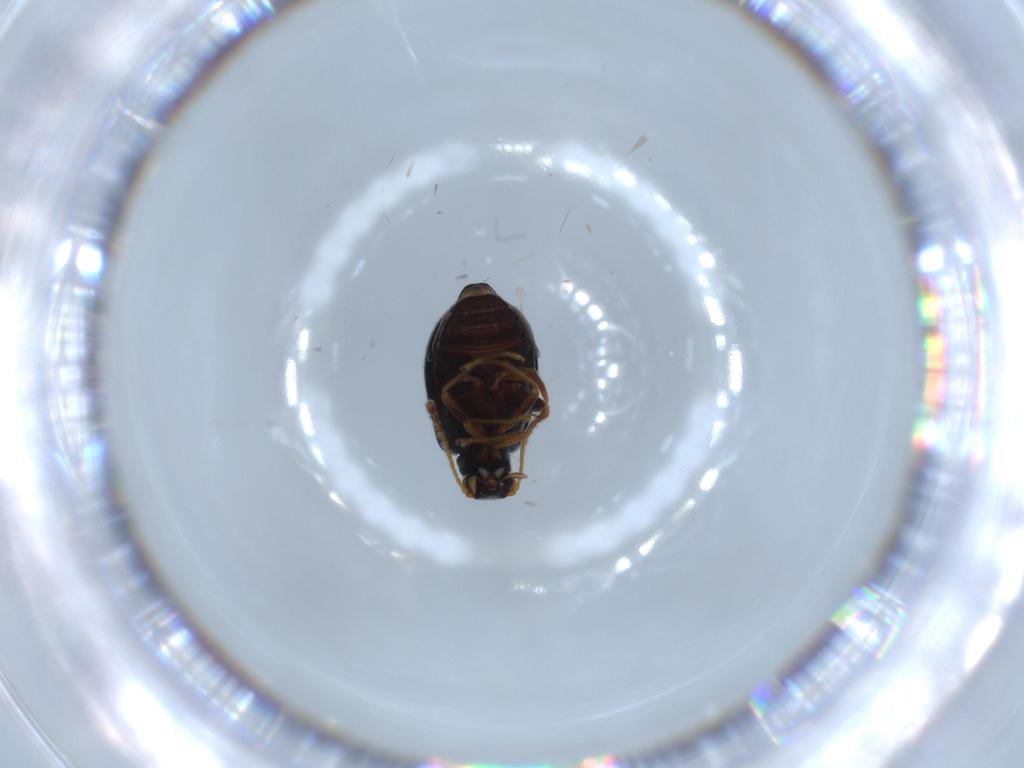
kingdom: Animalia
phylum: Arthropoda
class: Insecta
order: Coleoptera
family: Aderidae
